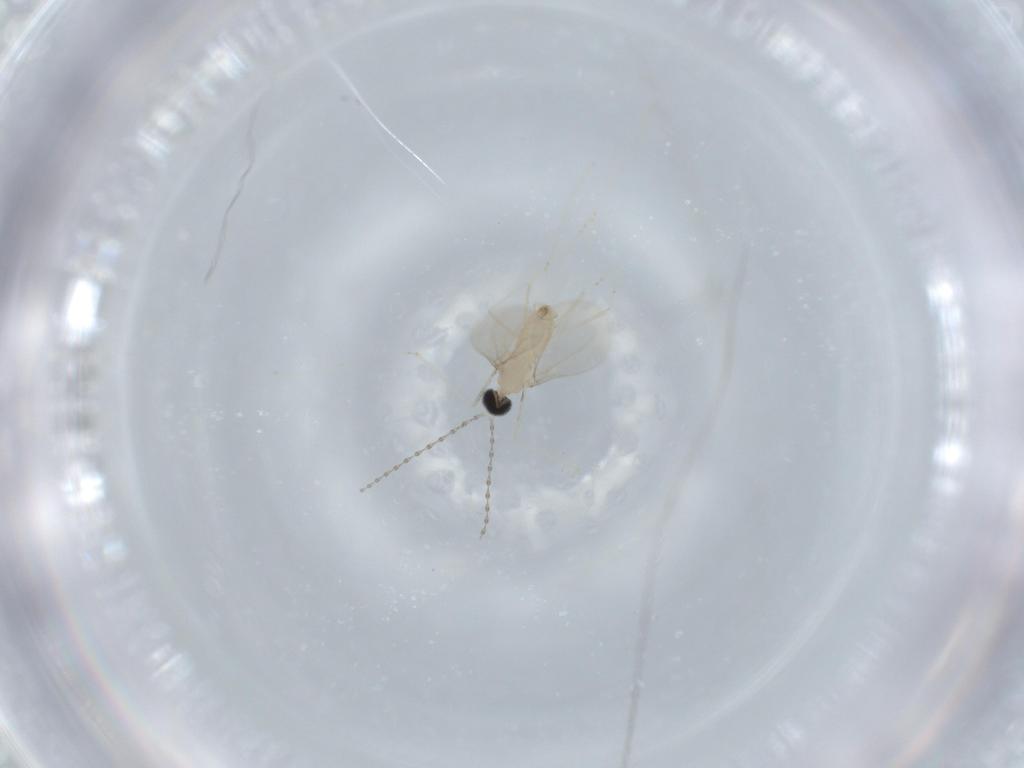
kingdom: Animalia
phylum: Arthropoda
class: Insecta
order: Diptera
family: Cecidomyiidae
